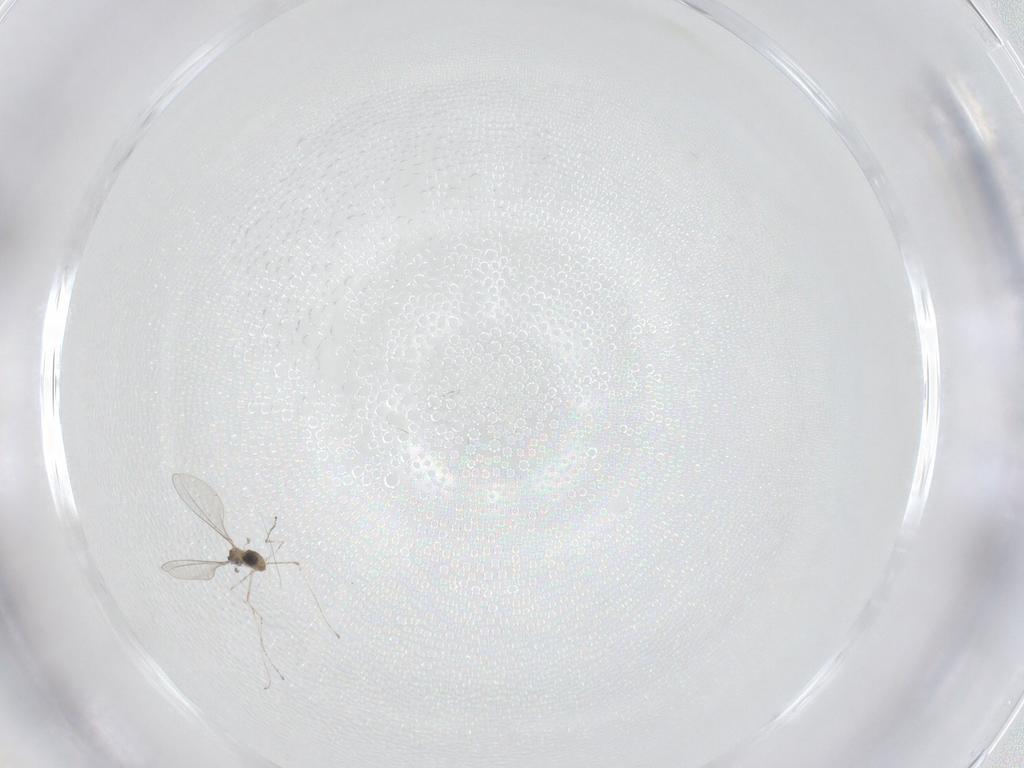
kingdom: Animalia
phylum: Arthropoda
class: Insecta
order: Diptera
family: Cecidomyiidae
